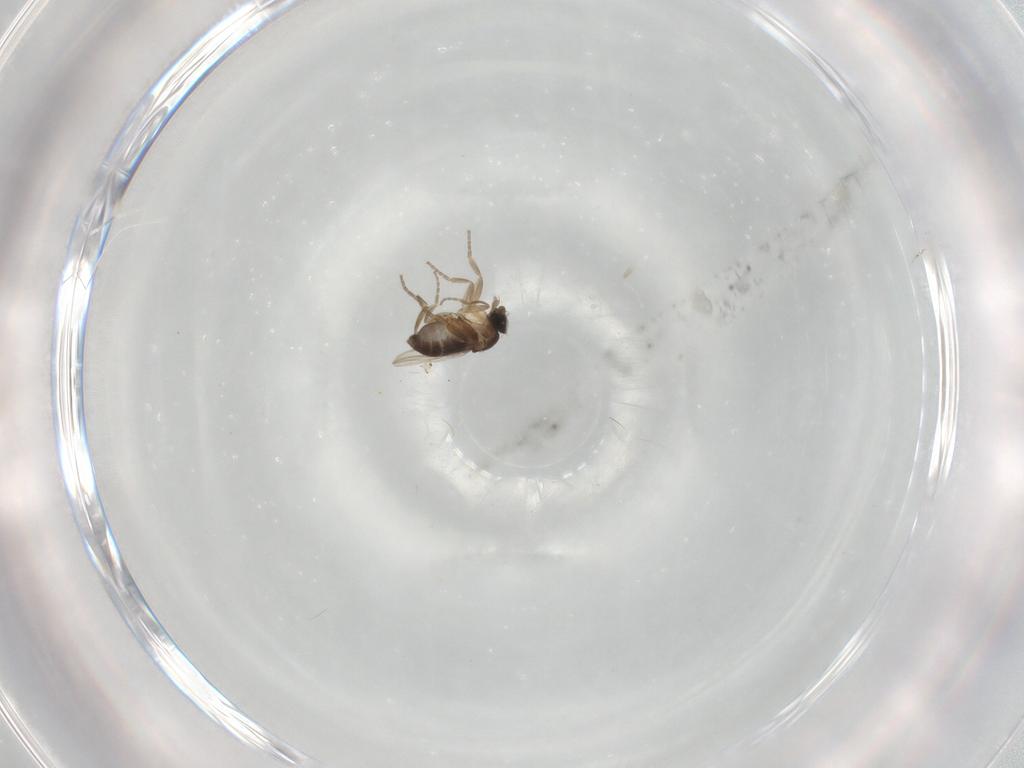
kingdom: Animalia
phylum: Arthropoda
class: Insecta
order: Diptera
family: Phoridae
